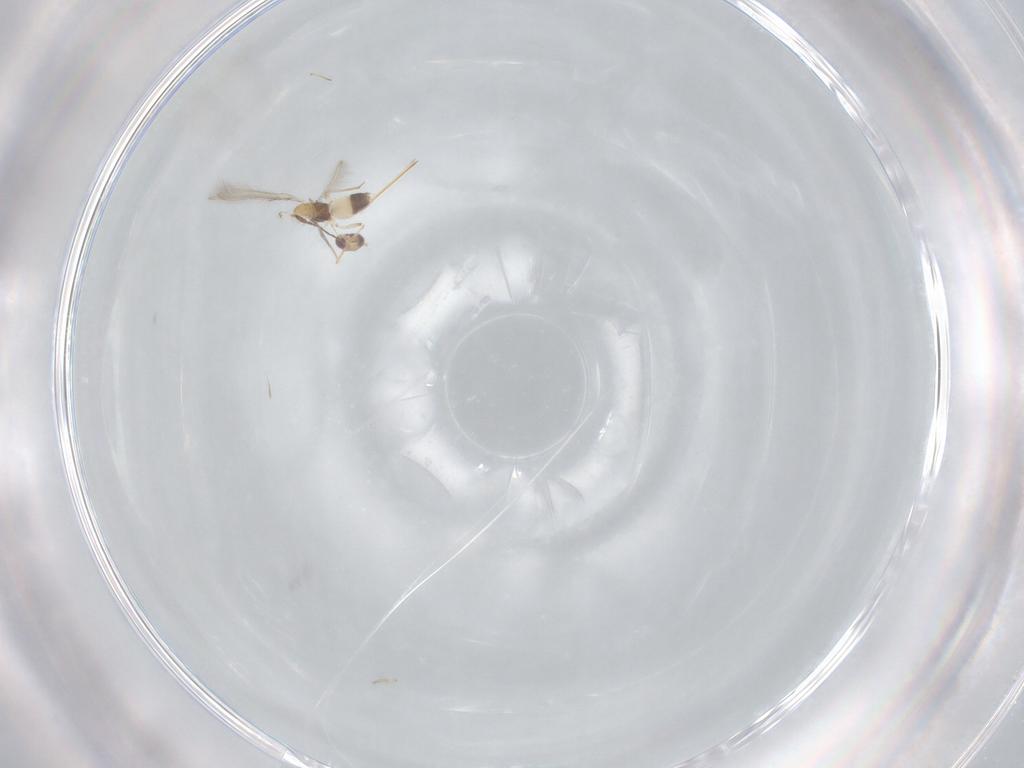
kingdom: Animalia
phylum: Arthropoda
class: Insecta
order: Hymenoptera
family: Mymaridae
